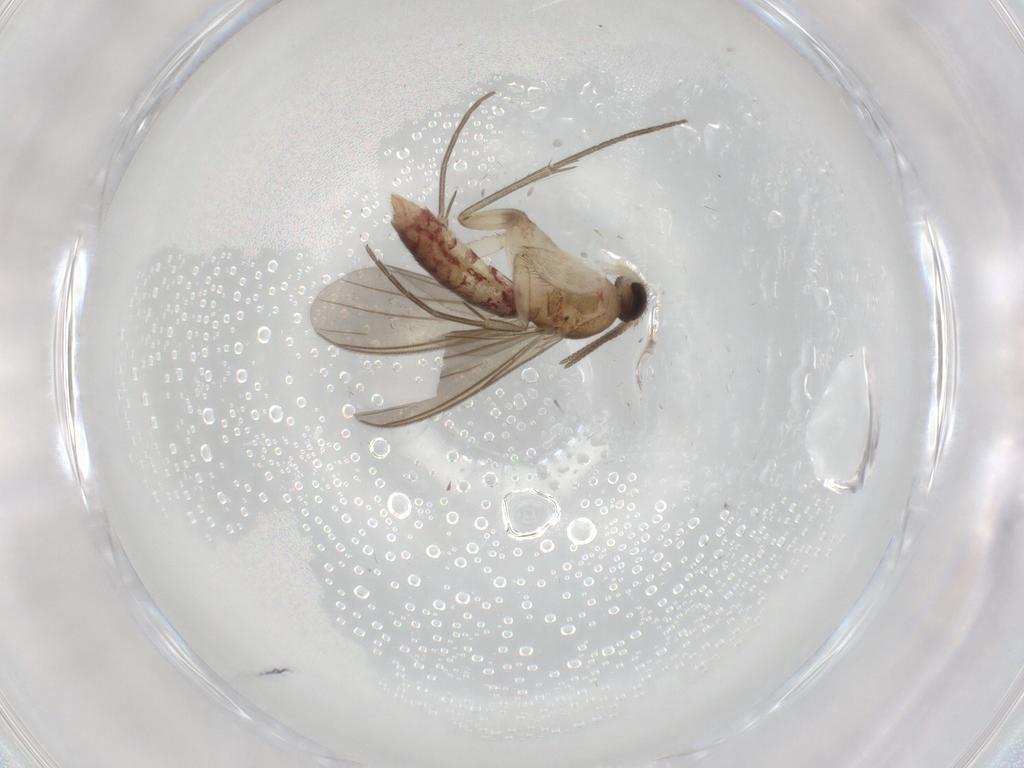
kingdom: Animalia
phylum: Arthropoda
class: Insecta
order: Diptera
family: Mycetophilidae
